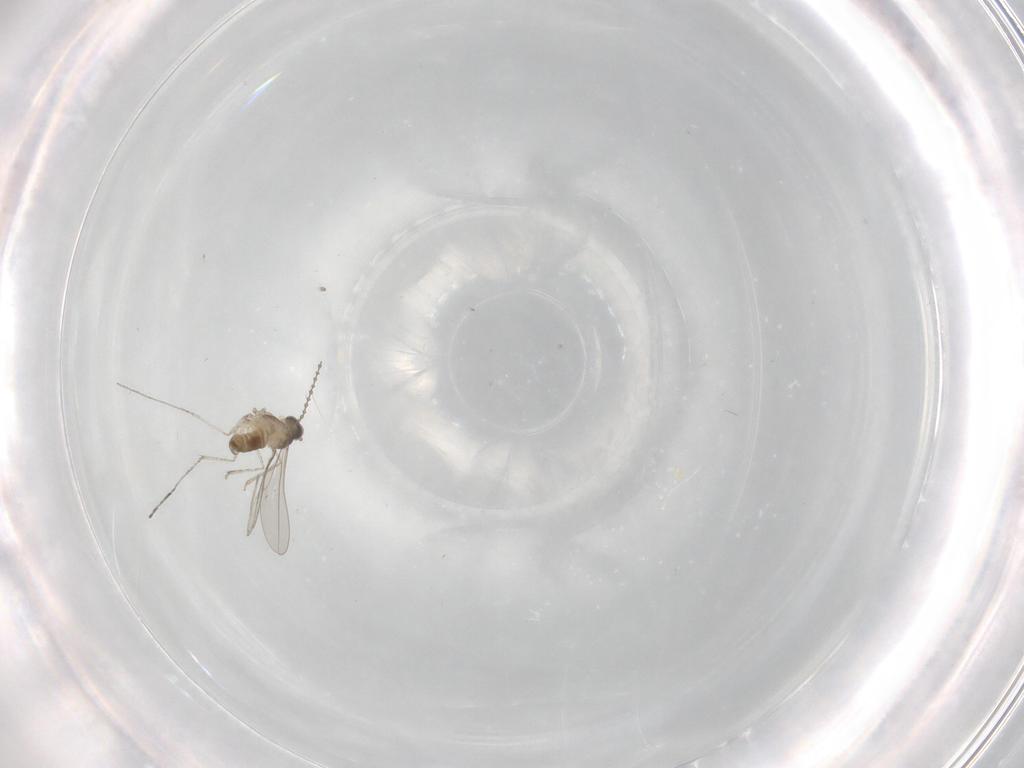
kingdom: Animalia
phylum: Arthropoda
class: Insecta
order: Diptera
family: Cecidomyiidae
